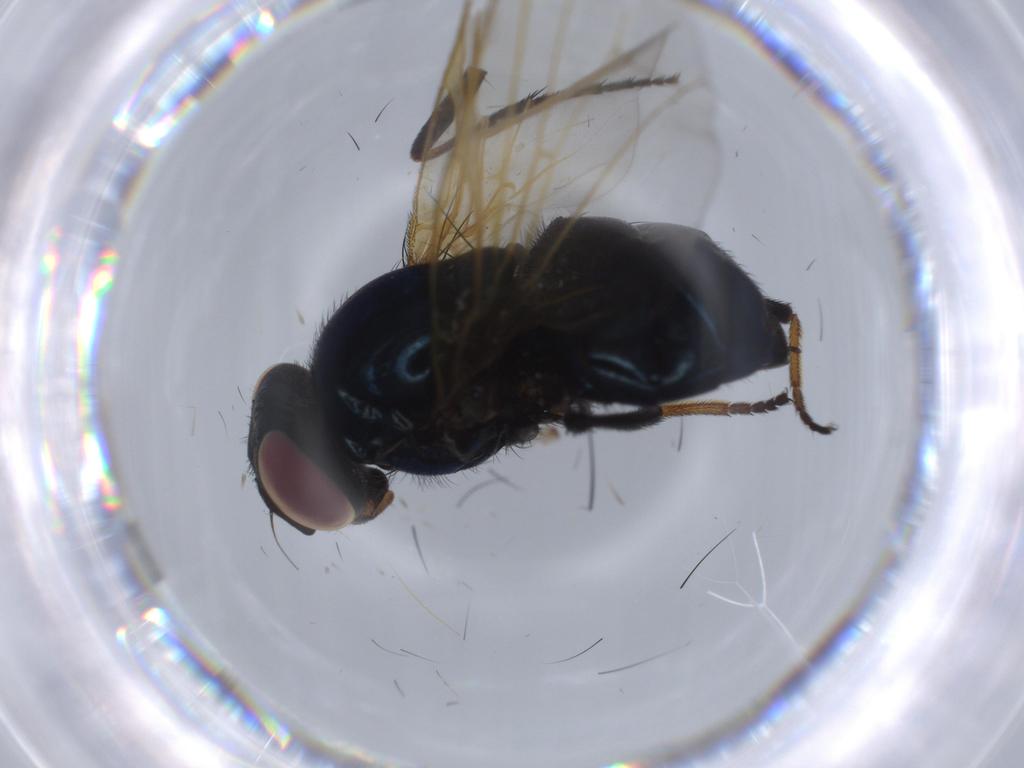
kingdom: Animalia
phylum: Arthropoda
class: Insecta
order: Diptera
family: Lonchaeidae
